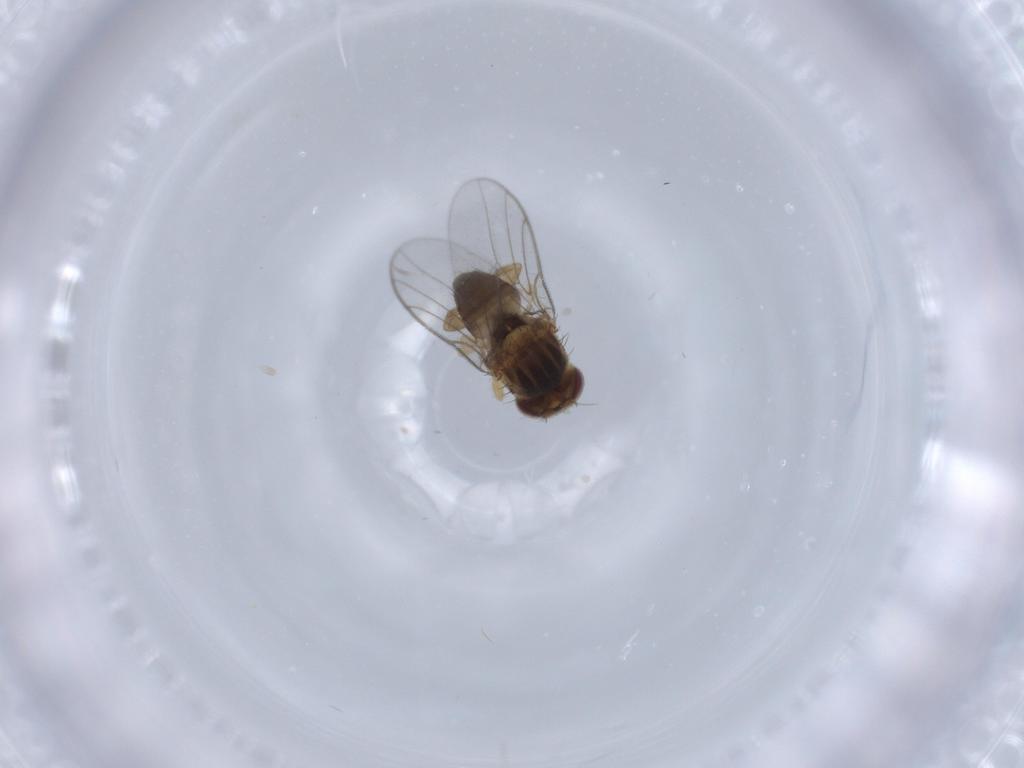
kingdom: Animalia
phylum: Arthropoda
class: Insecta
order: Diptera
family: Chloropidae
